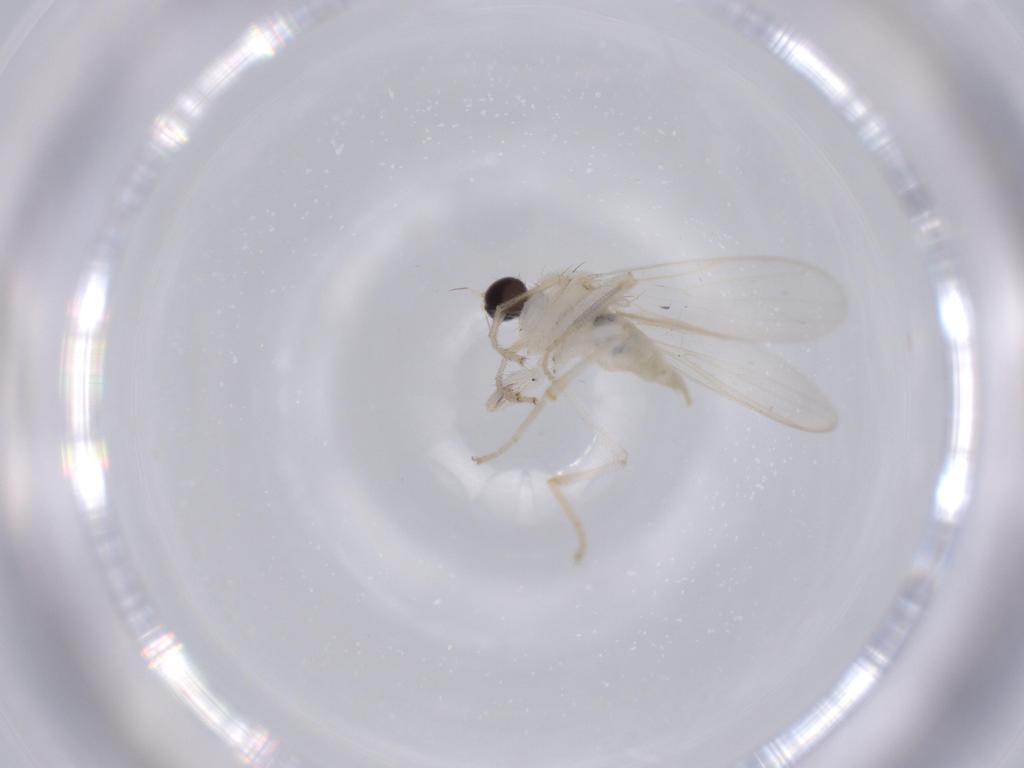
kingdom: Animalia
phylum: Arthropoda
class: Insecta
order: Diptera
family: Hybotidae
